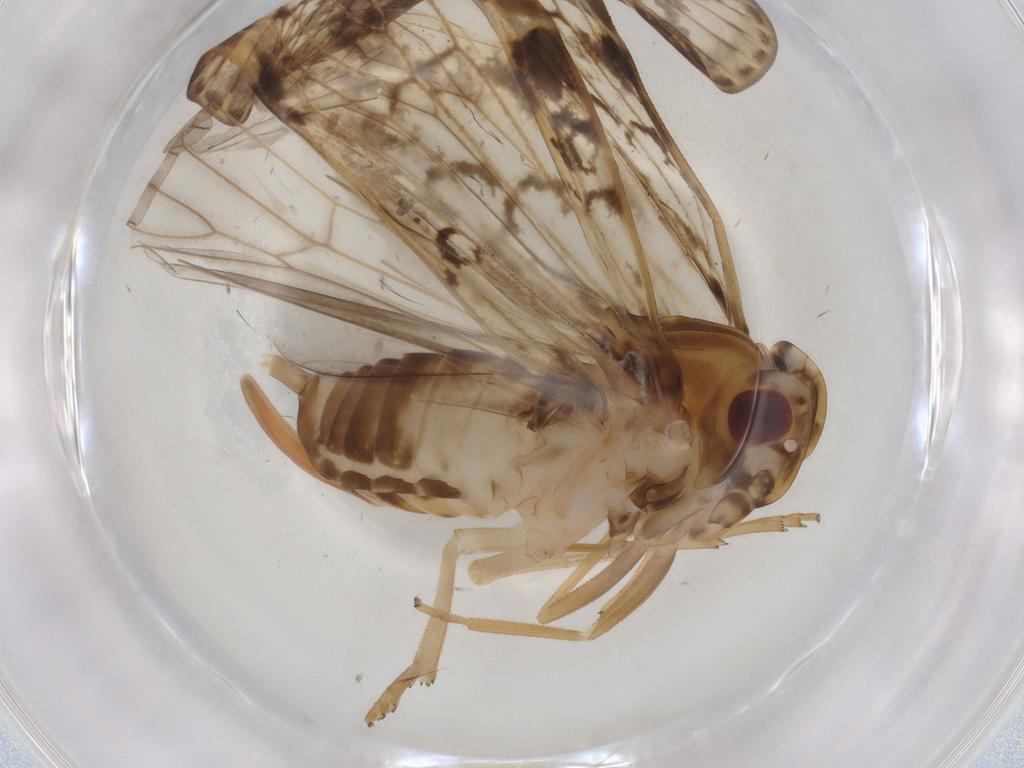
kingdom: Animalia
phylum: Arthropoda
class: Insecta
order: Hemiptera
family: Cixiidae
